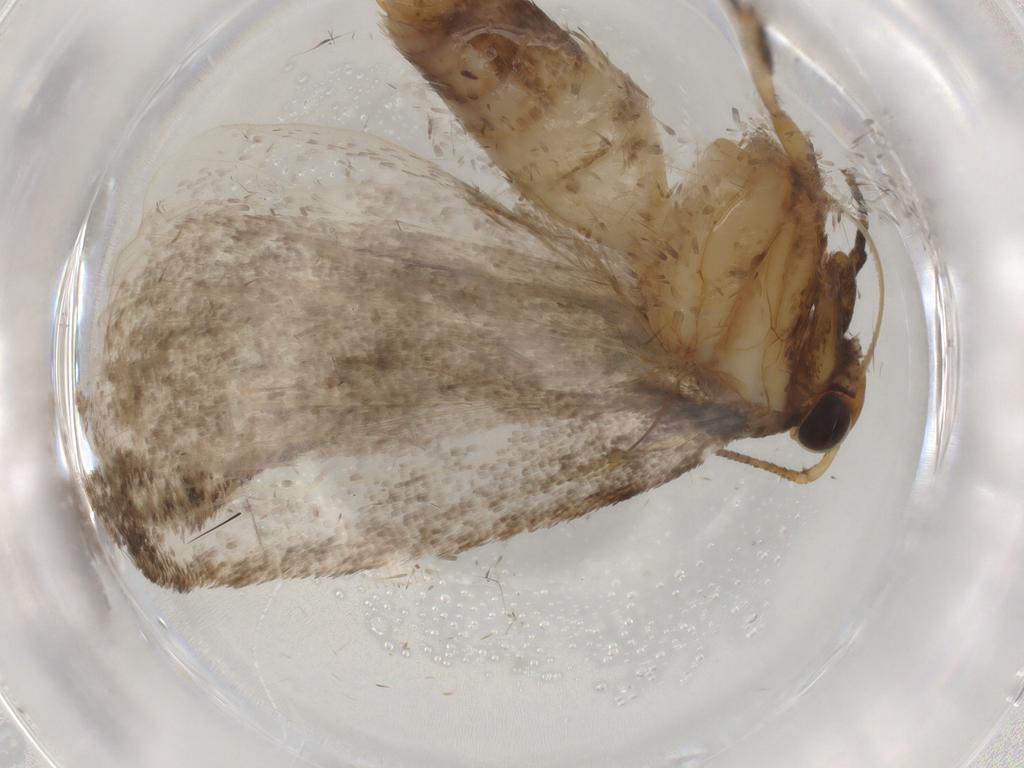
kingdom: Animalia
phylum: Arthropoda
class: Insecta
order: Lepidoptera
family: Oecophoridae
